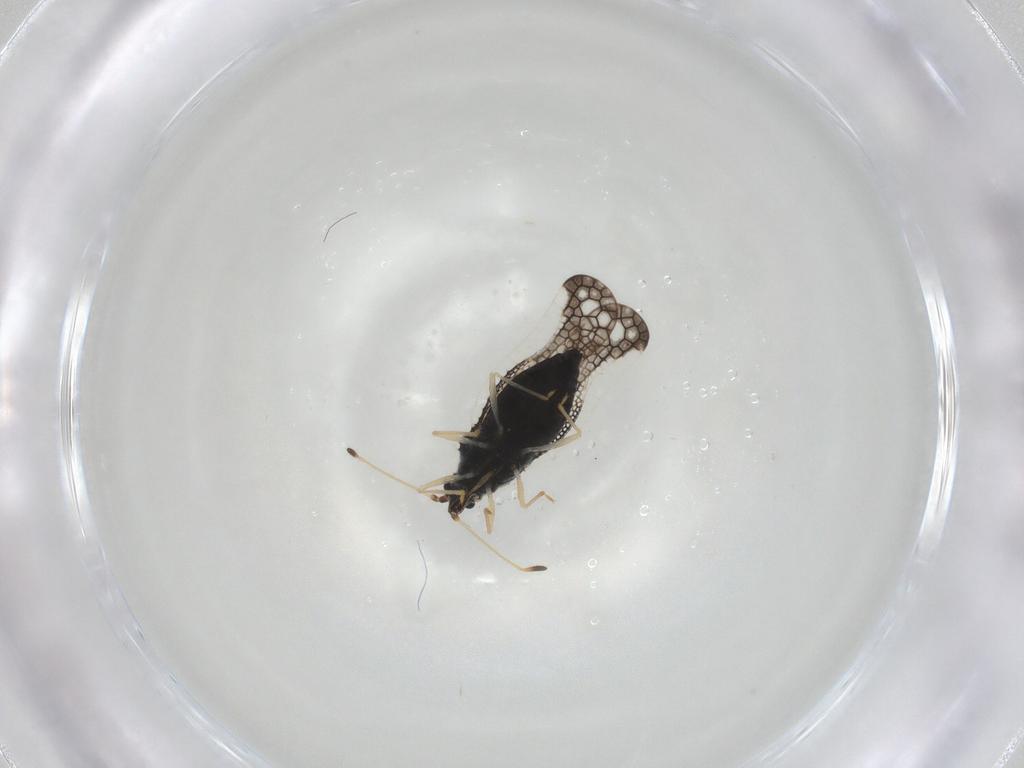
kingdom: Animalia
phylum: Arthropoda
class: Insecta
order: Hemiptera
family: Tingidae
